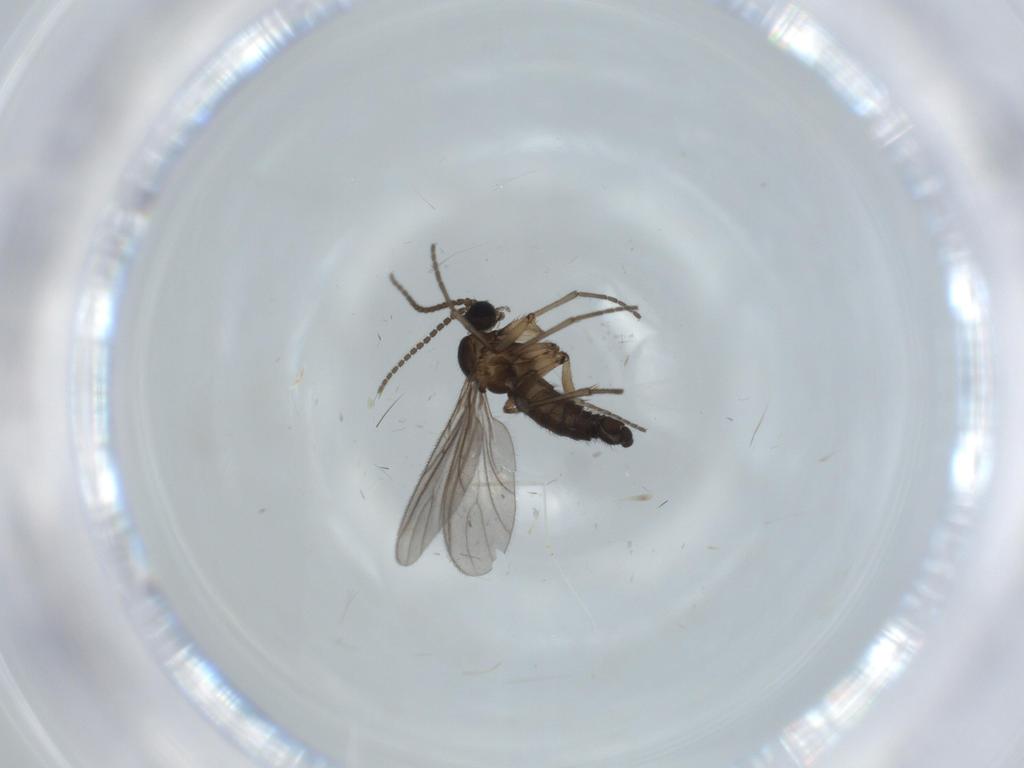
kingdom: Animalia
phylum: Arthropoda
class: Insecta
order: Diptera
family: Sciaridae
